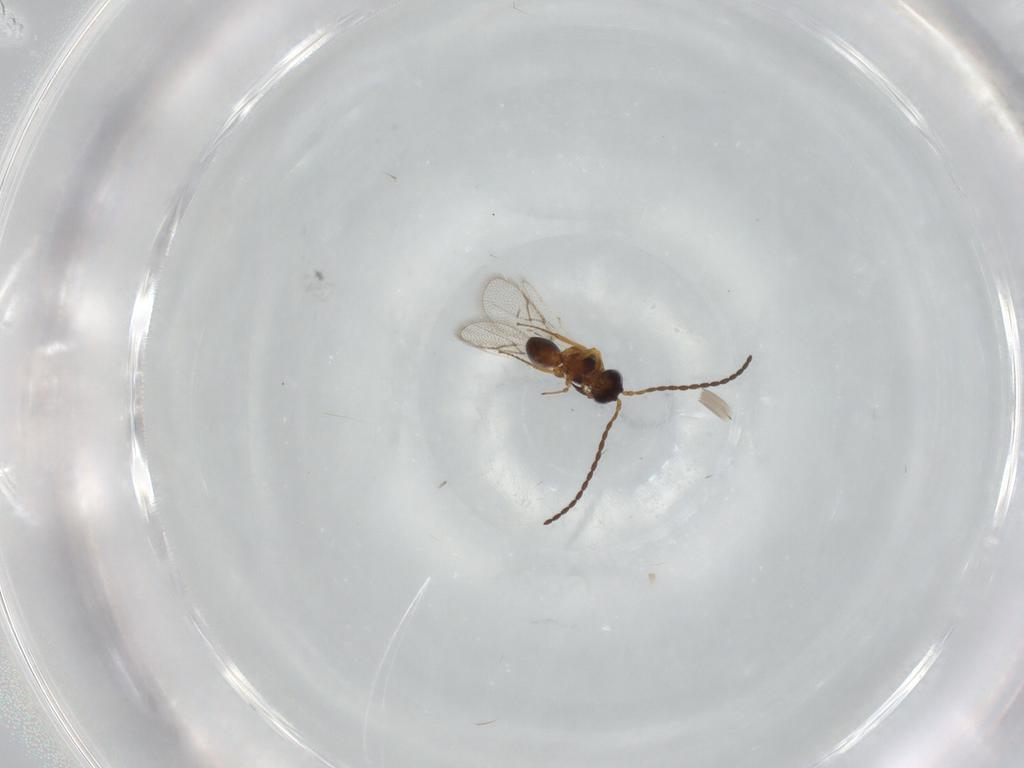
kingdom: Animalia
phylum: Arthropoda
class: Insecta
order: Hymenoptera
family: Figitidae
